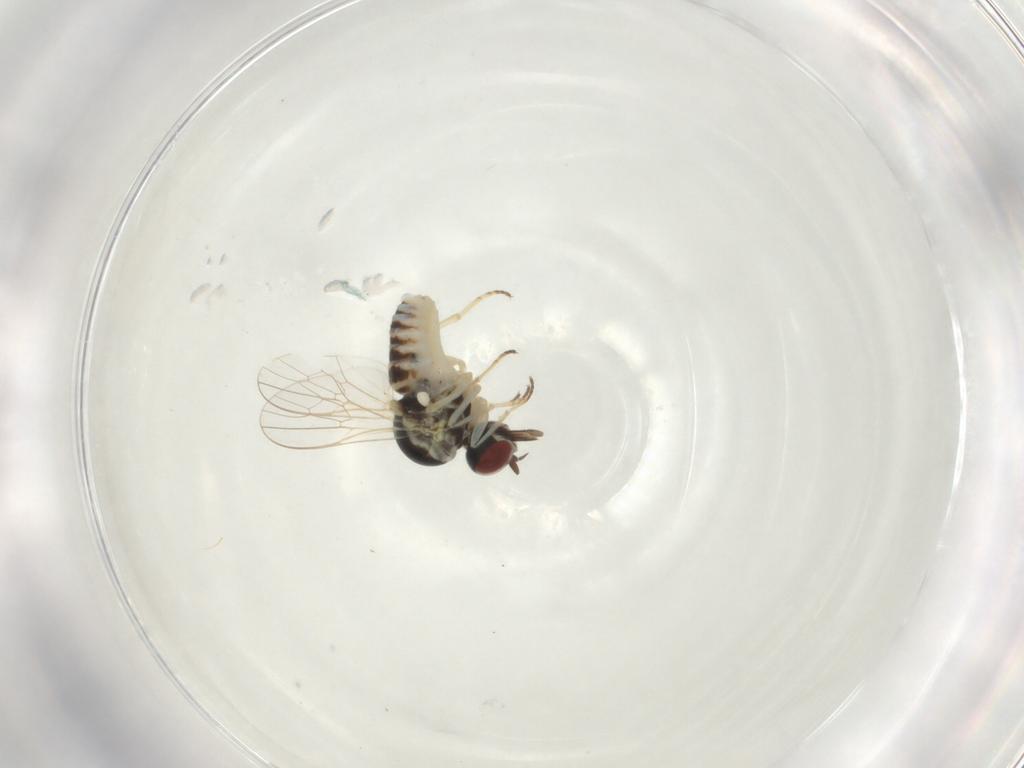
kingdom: Animalia
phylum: Arthropoda
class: Insecta
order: Diptera
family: Bombyliidae
